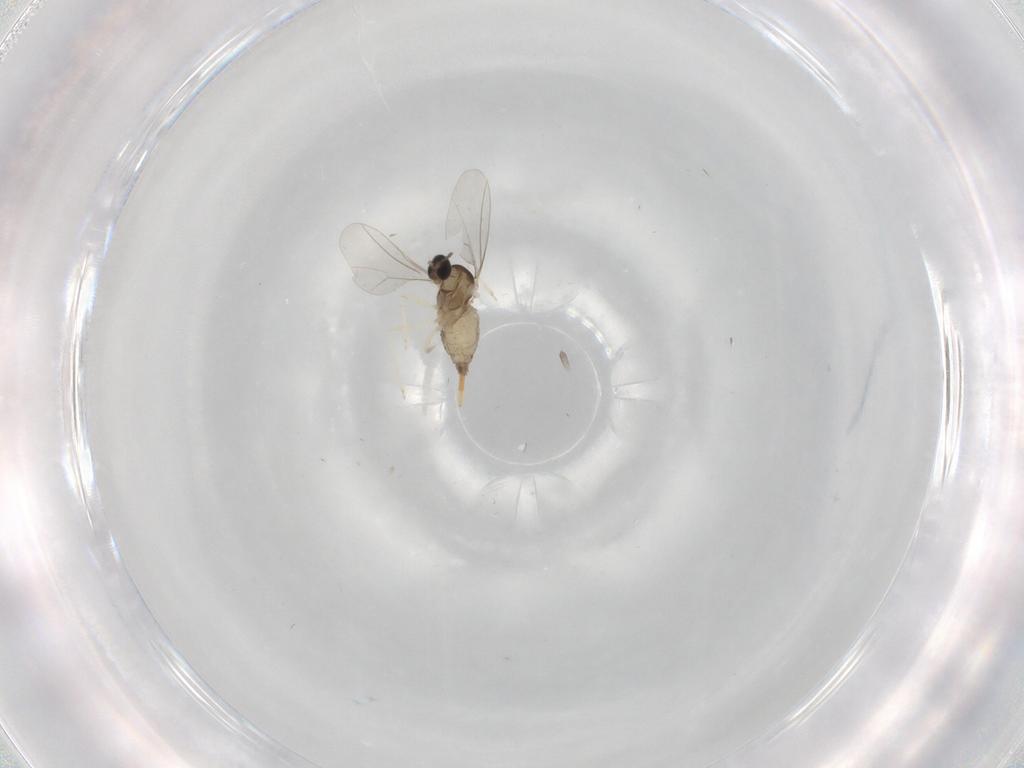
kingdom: Animalia
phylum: Arthropoda
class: Insecta
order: Diptera
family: Cecidomyiidae
